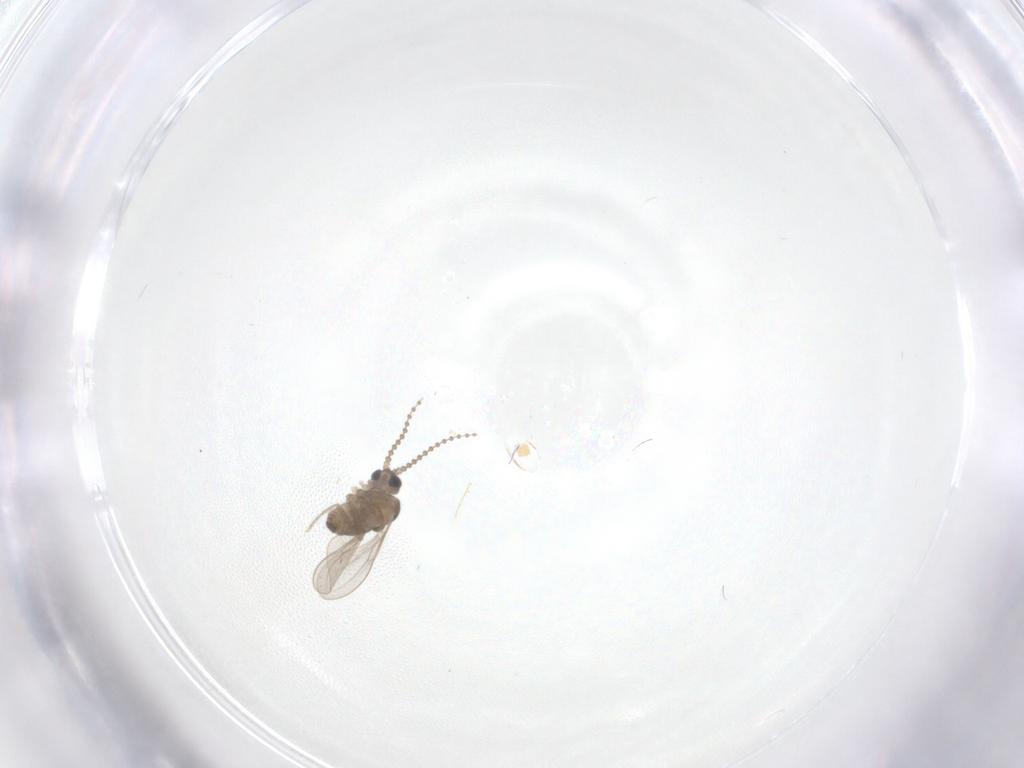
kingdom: Animalia
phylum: Arthropoda
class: Insecta
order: Diptera
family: Cecidomyiidae
